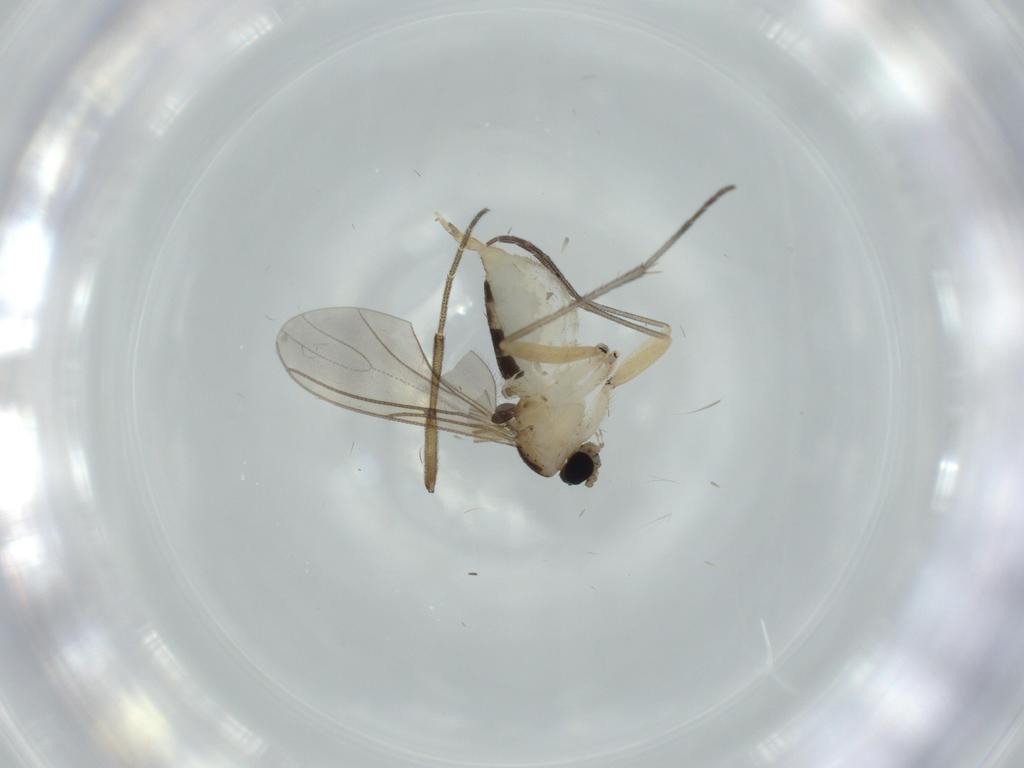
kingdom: Animalia
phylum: Arthropoda
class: Insecta
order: Diptera
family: Sciaridae
